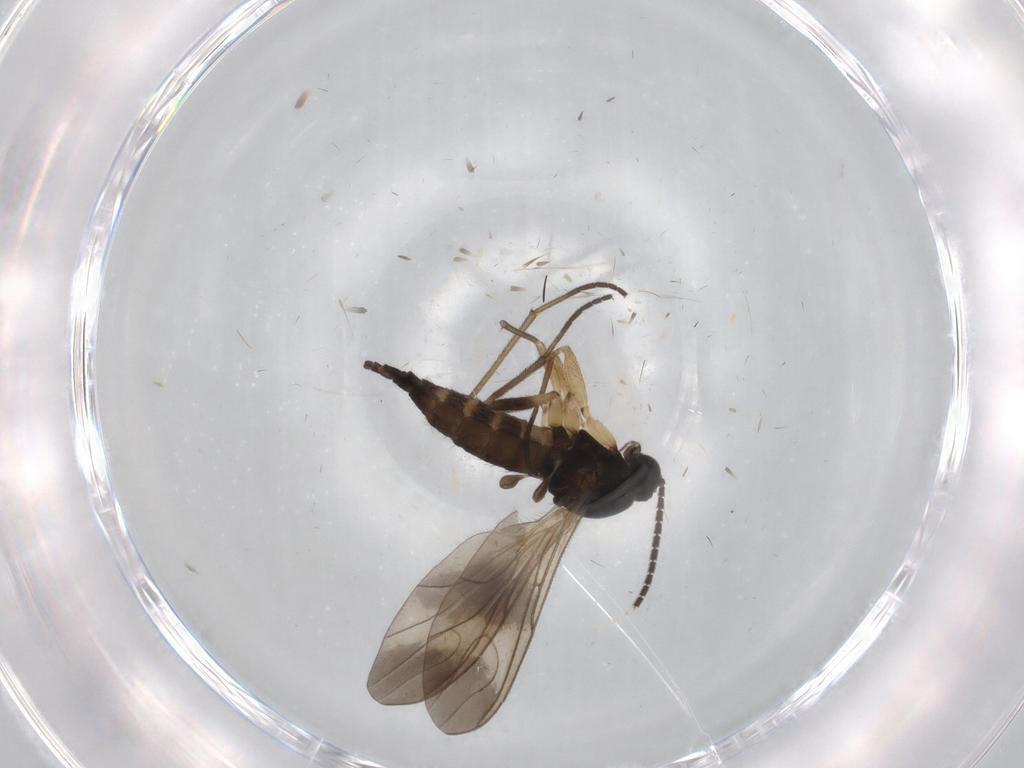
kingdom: Animalia
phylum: Arthropoda
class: Insecta
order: Diptera
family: Sciaridae
